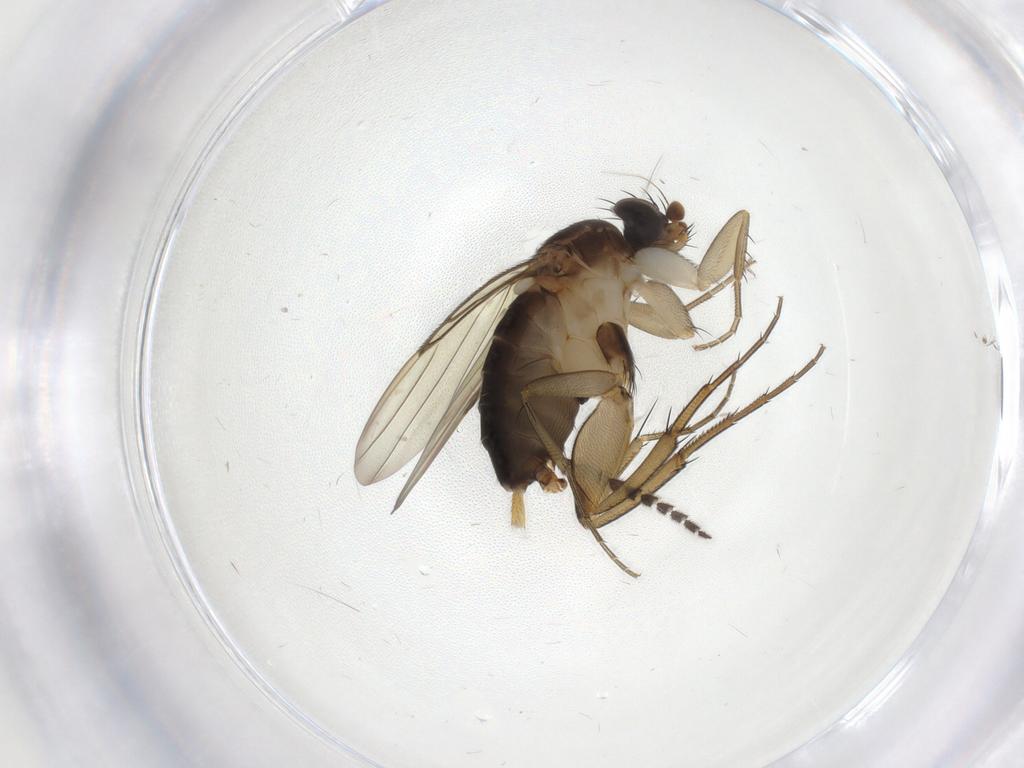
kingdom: Animalia
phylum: Arthropoda
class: Insecta
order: Diptera
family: Phoridae
